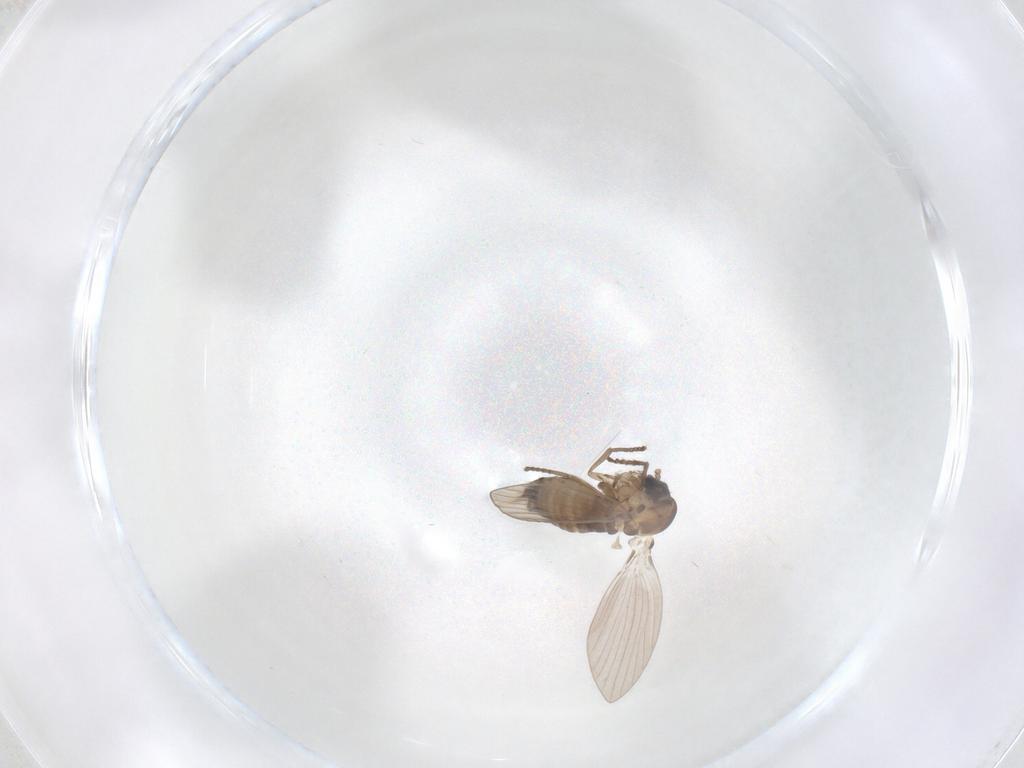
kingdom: Animalia
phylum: Arthropoda
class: Insecta
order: Diptera
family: Psychodidae
